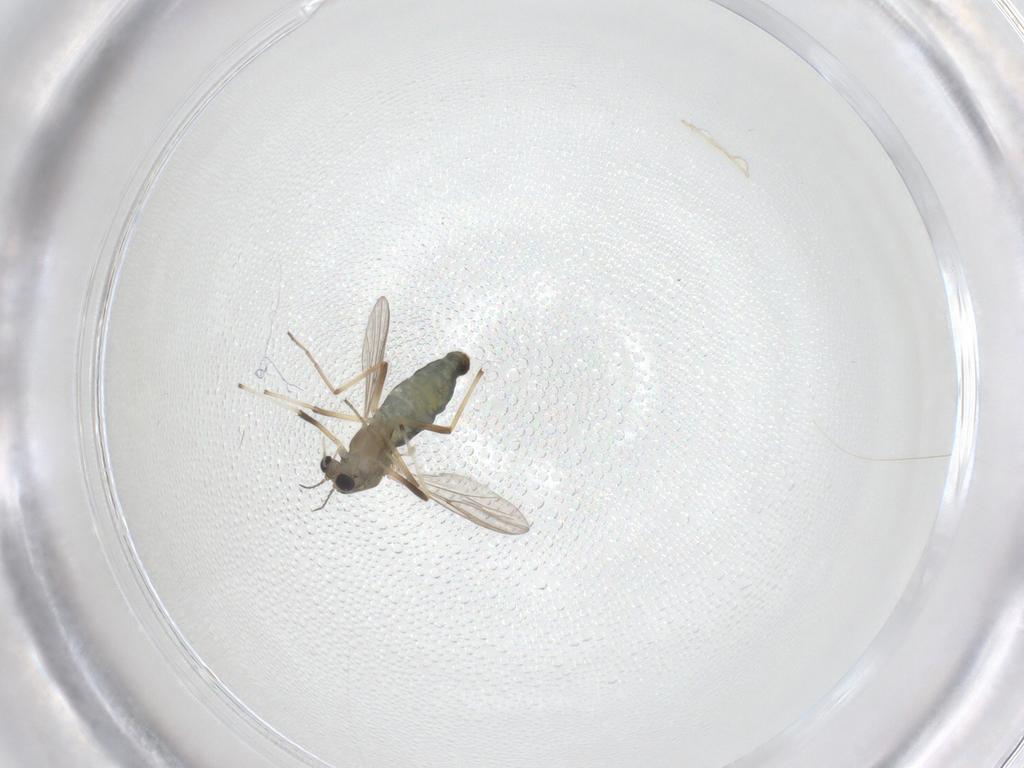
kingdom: Animalia
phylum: Arthropoda
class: Insecta
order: Diptera
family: Chironomidae
